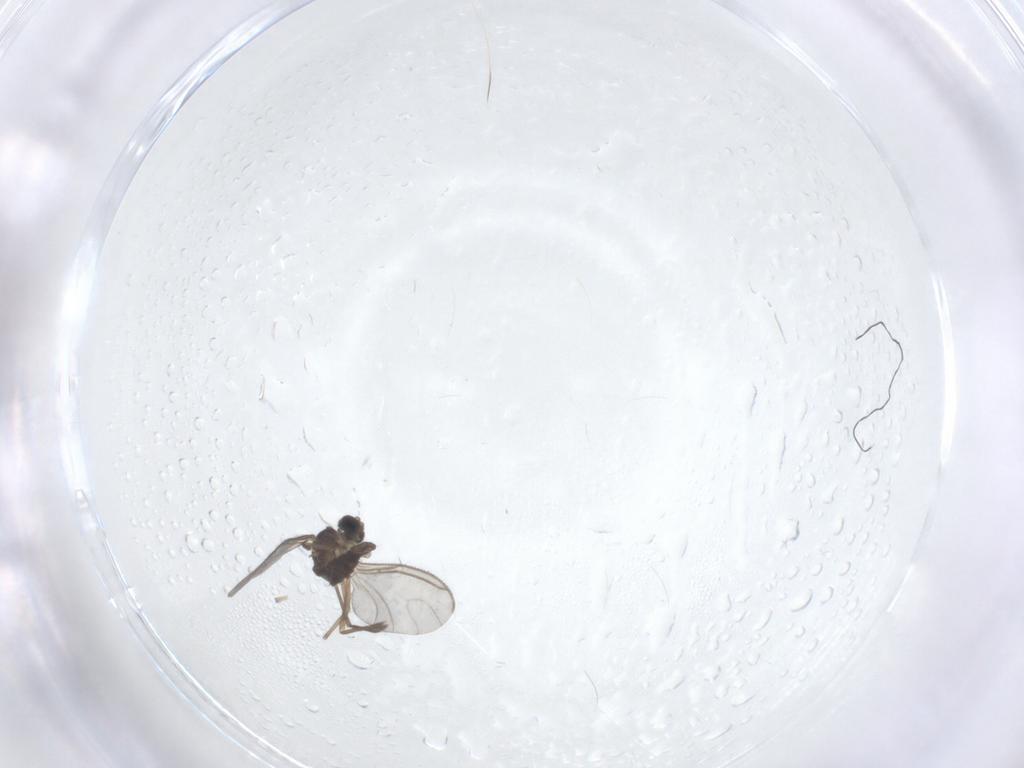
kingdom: Animalia
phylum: Arthropoda
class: Insecta
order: Diptera
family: Sciaridae
